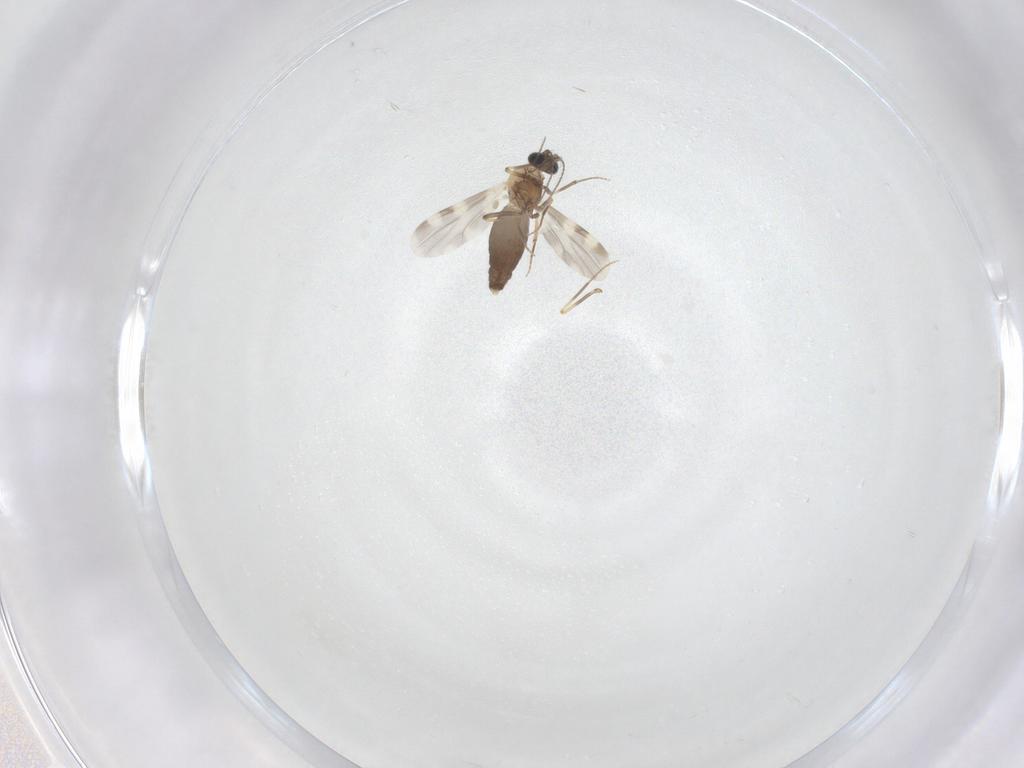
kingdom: Animalia
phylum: Arthropoda
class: Insecta
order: Diptera
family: Ceratopogonidae
